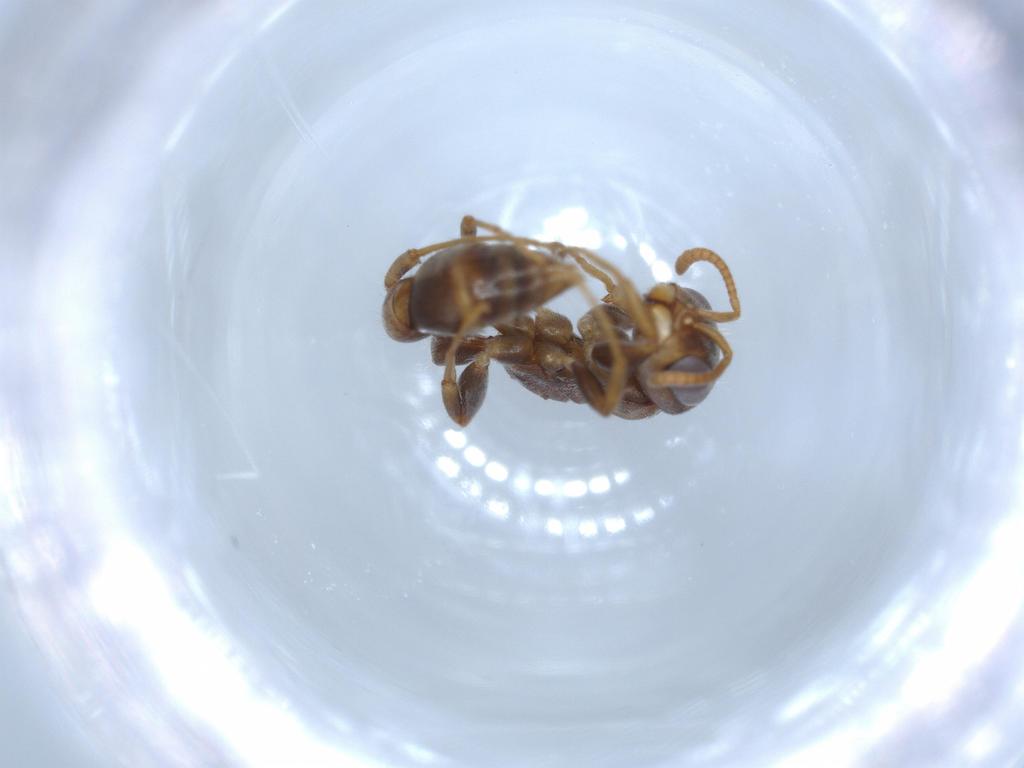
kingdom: Animalia
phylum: Arthropoda
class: Insecta
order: Hymenoptera
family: Formicidae
